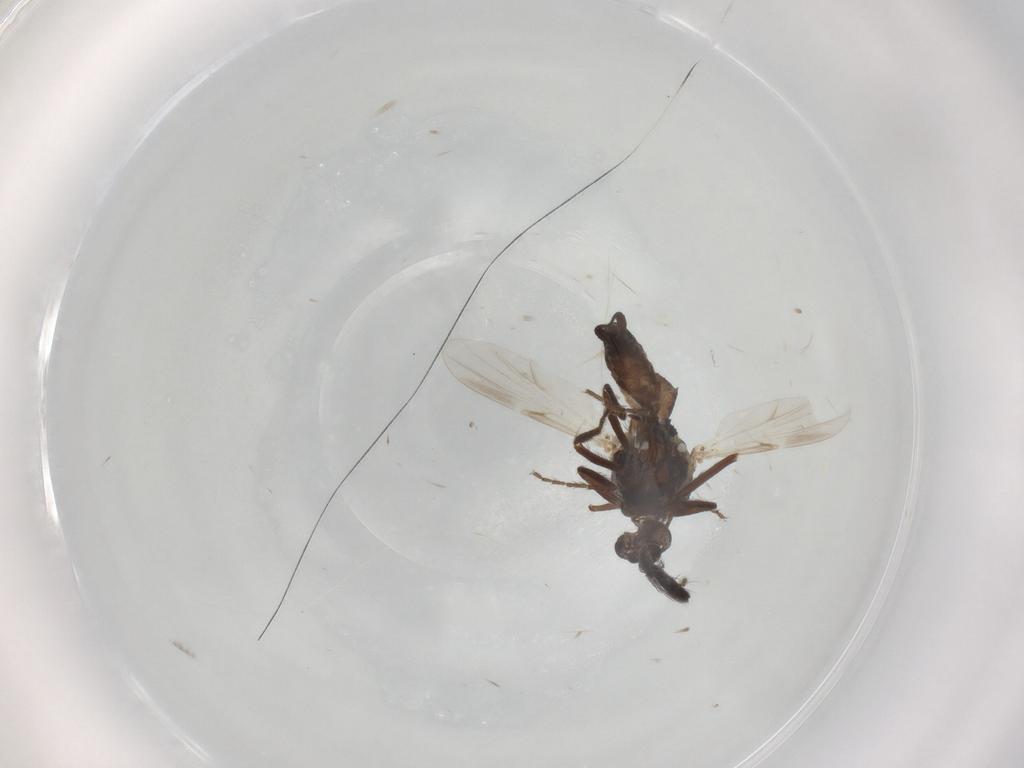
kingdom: Animalia
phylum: Arthropoda
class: Insecta
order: Diptera
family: Ceratopogonidae
